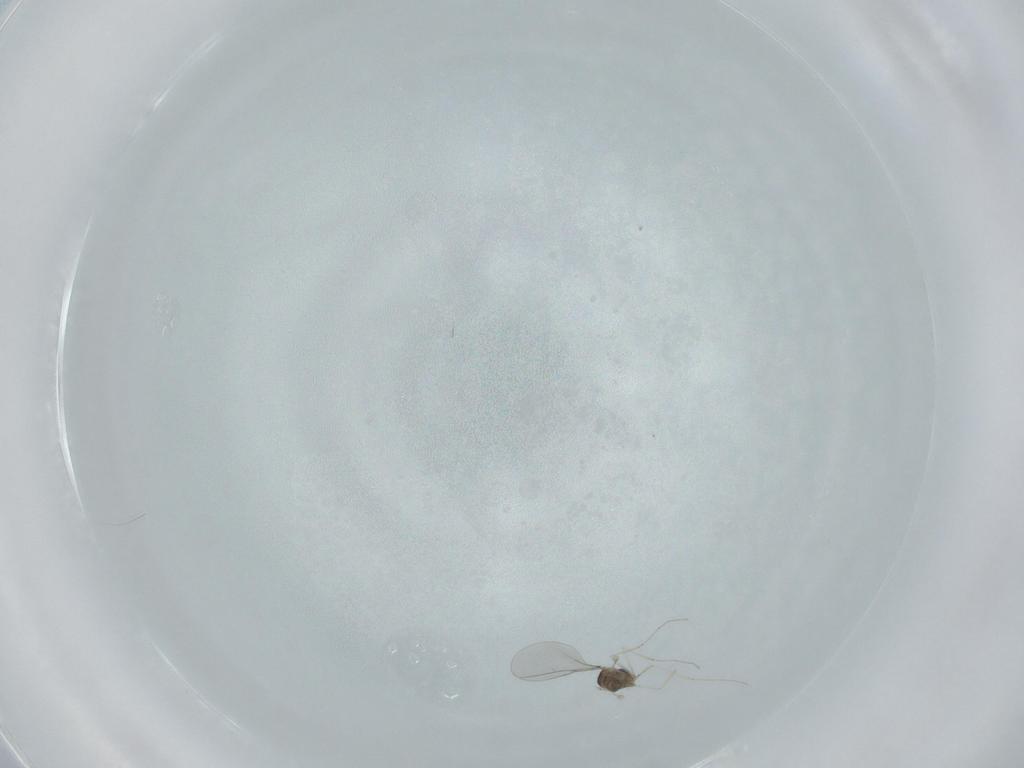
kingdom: Animalia
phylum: Arthropoda
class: Insecta
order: Diptera
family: Cecidomyiidae
